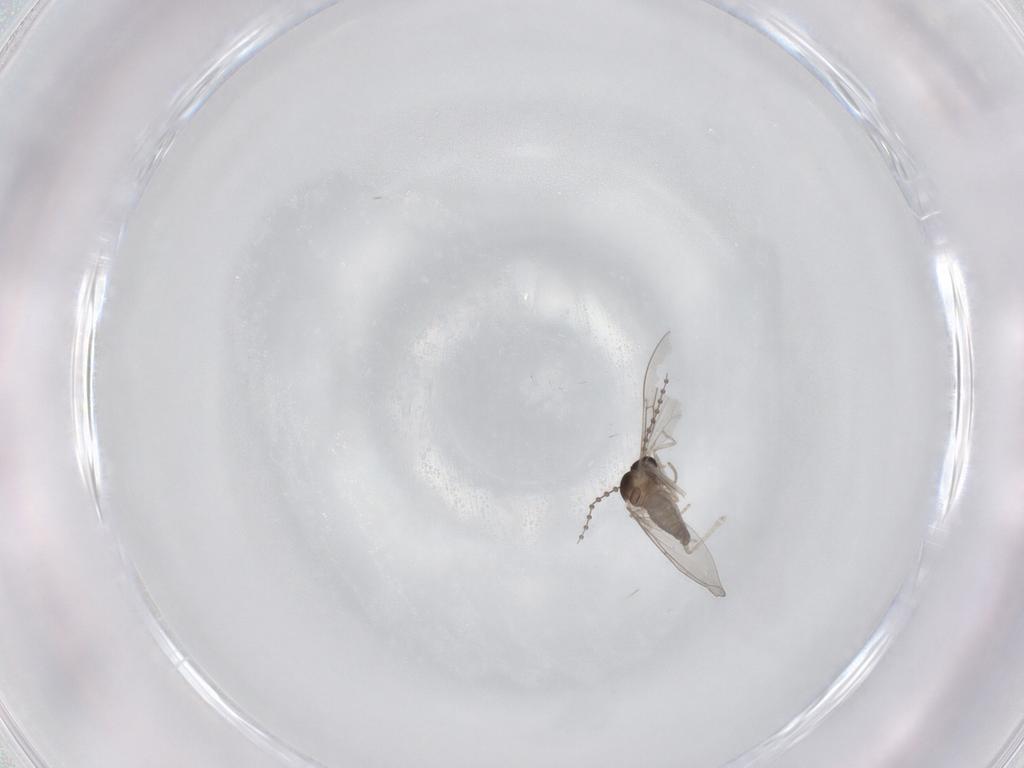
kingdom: Animalia
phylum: Arthropoda
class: Insecta
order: Diptera
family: Cecidomyiidae
